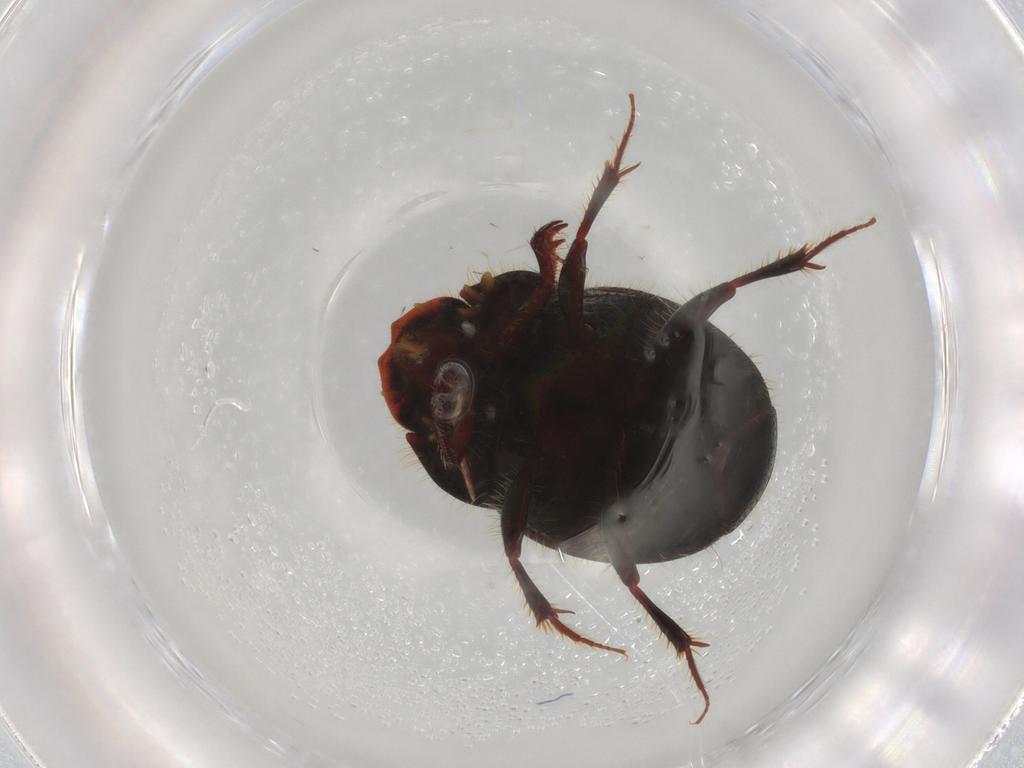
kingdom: Animalia
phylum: Arthropoda
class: Insecta
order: Coleoptera
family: Scarabaeidae
